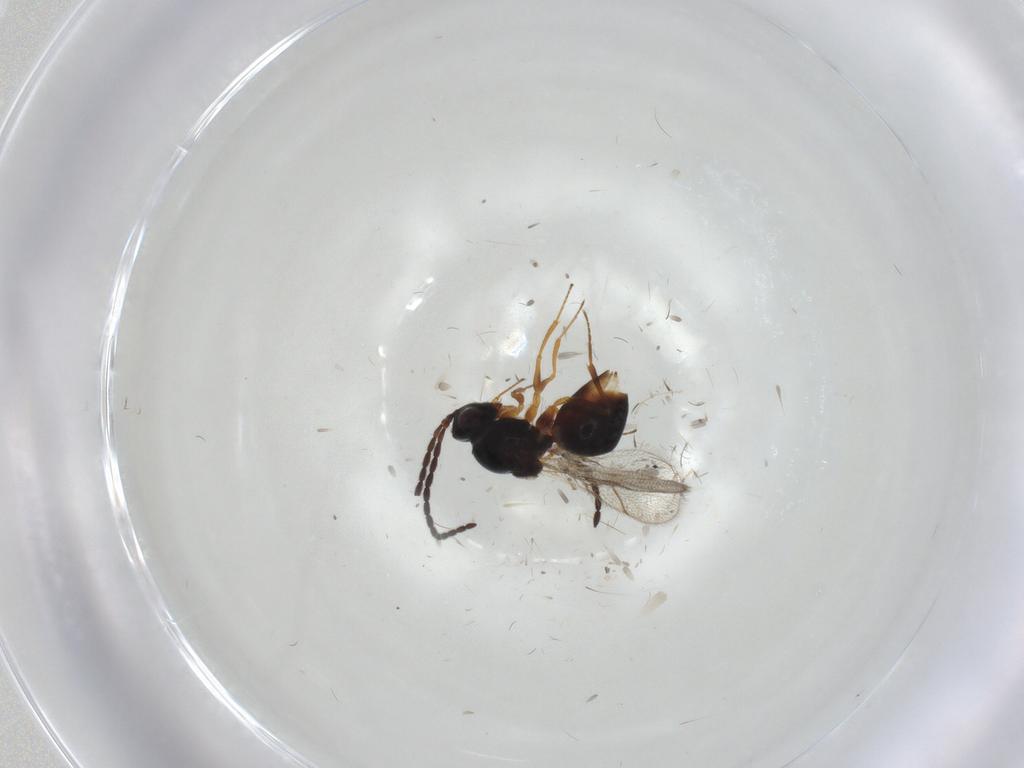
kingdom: Animalia
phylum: Arthropoda
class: Insecta
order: Hymenoptera
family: Figitidae
